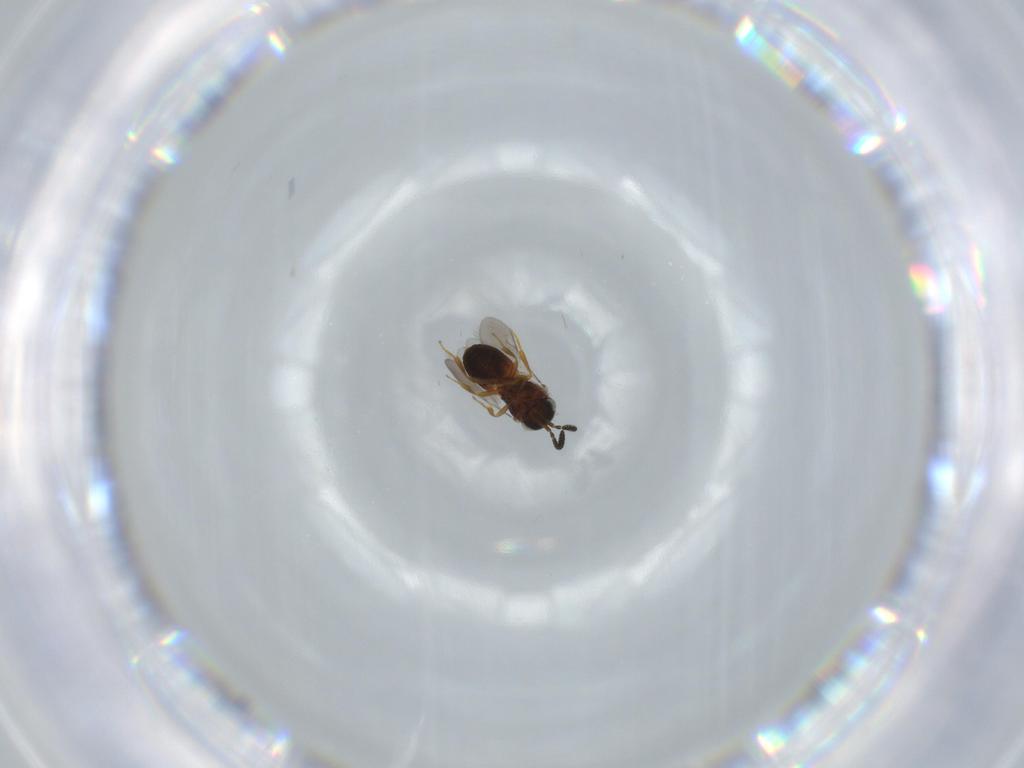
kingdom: Animalia
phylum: Arthropoda
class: Insecta
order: Hymenoptera
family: Scelionidae
